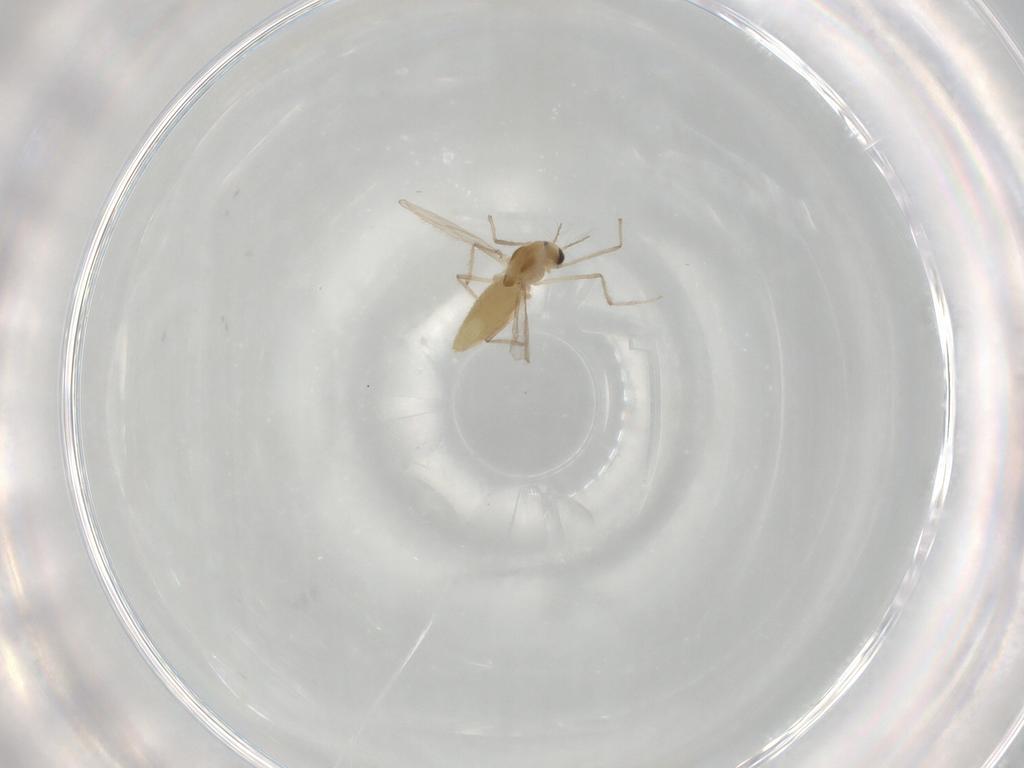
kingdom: Animalia
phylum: Arthropoda
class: Insecta
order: Diptera
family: Chironomidae
